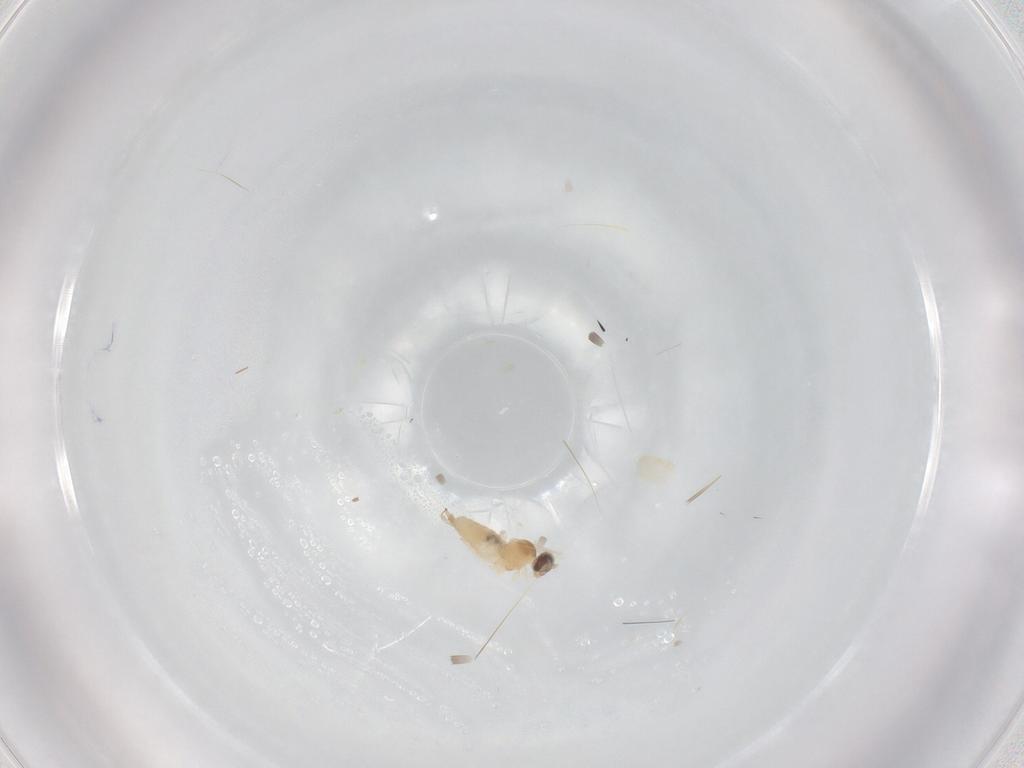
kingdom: Animalia
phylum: Arthropoda
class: Insecta
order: Diptera
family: Cecidomyiidae
